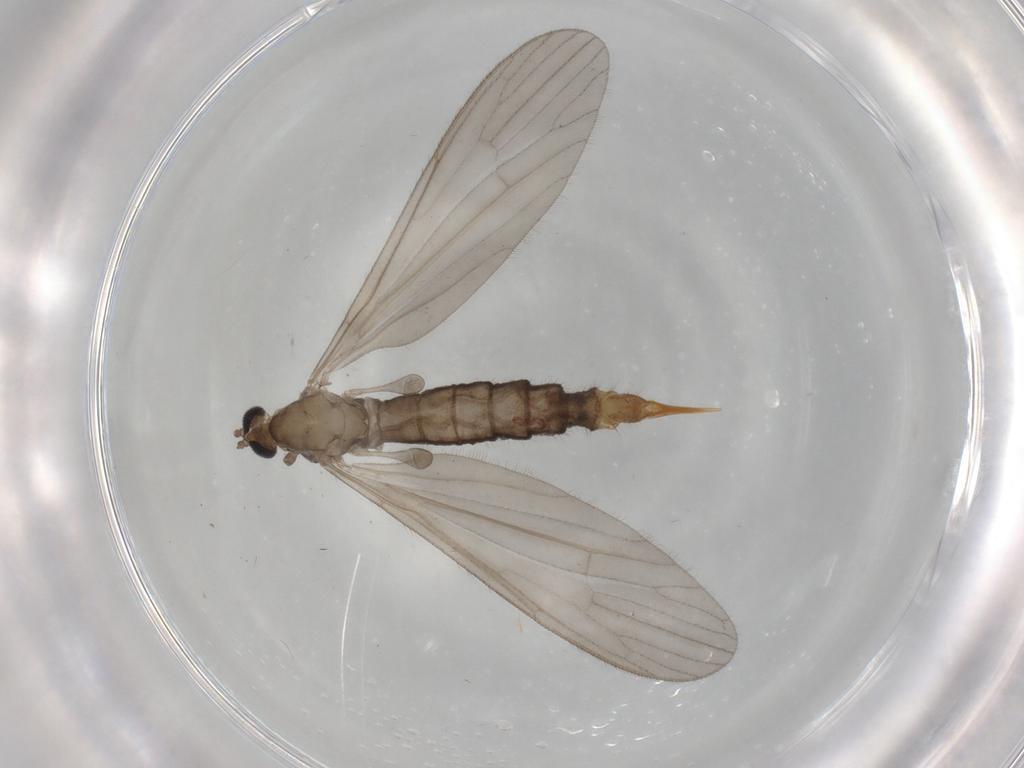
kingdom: Animalia
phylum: Arthropoda
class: Insecta
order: Diptera
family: Limoniidae
